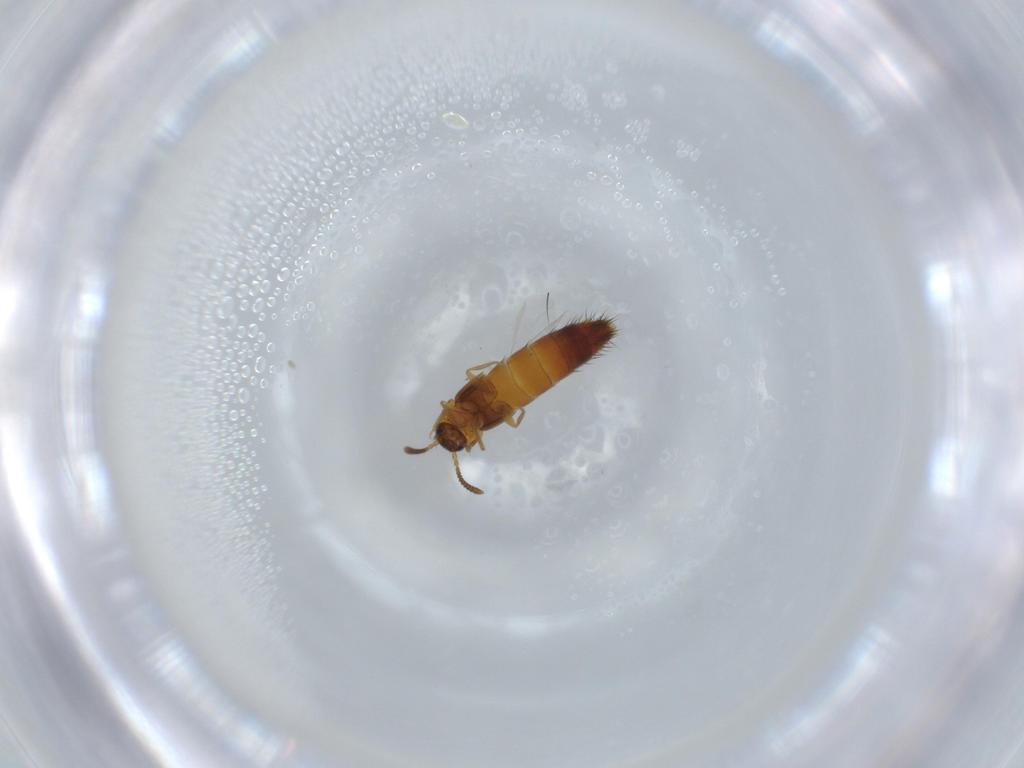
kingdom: Animalia
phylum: Arthropoda
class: Insecta
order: Coleoptera
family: Staphylinidae
